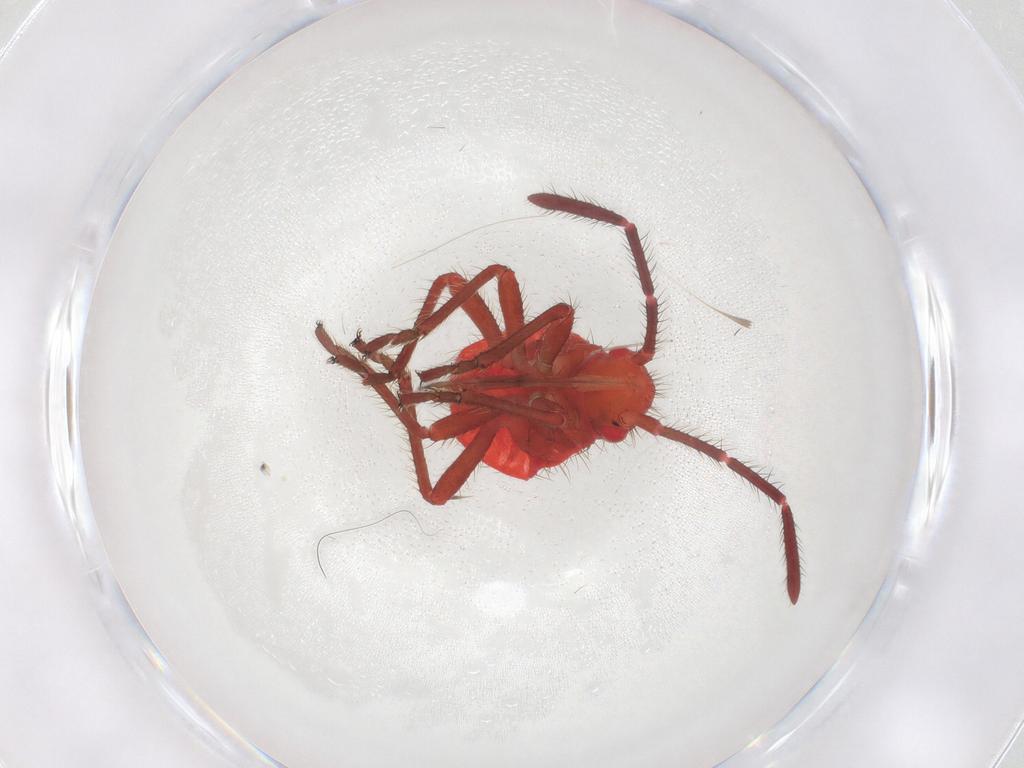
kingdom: Animalia
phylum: Arthropoda
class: Insecta
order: Hemiptera
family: Rhopalidae
